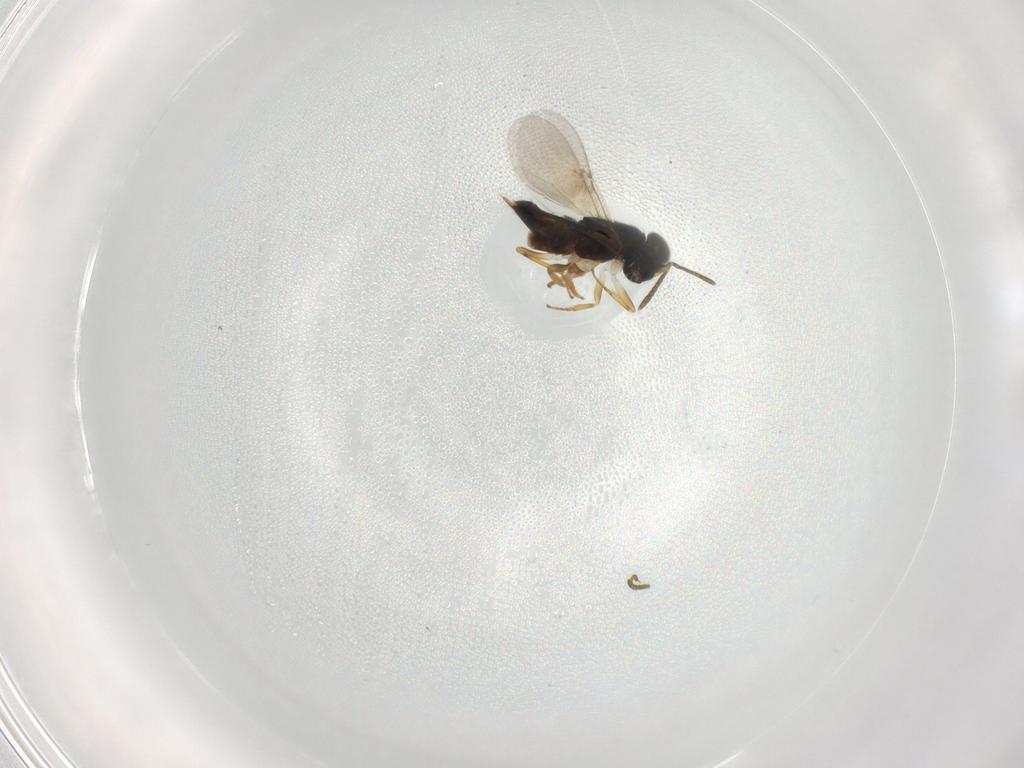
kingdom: Animalia
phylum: Arthropoda
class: Insecta
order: Hymenoptera
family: Encyrtidae
